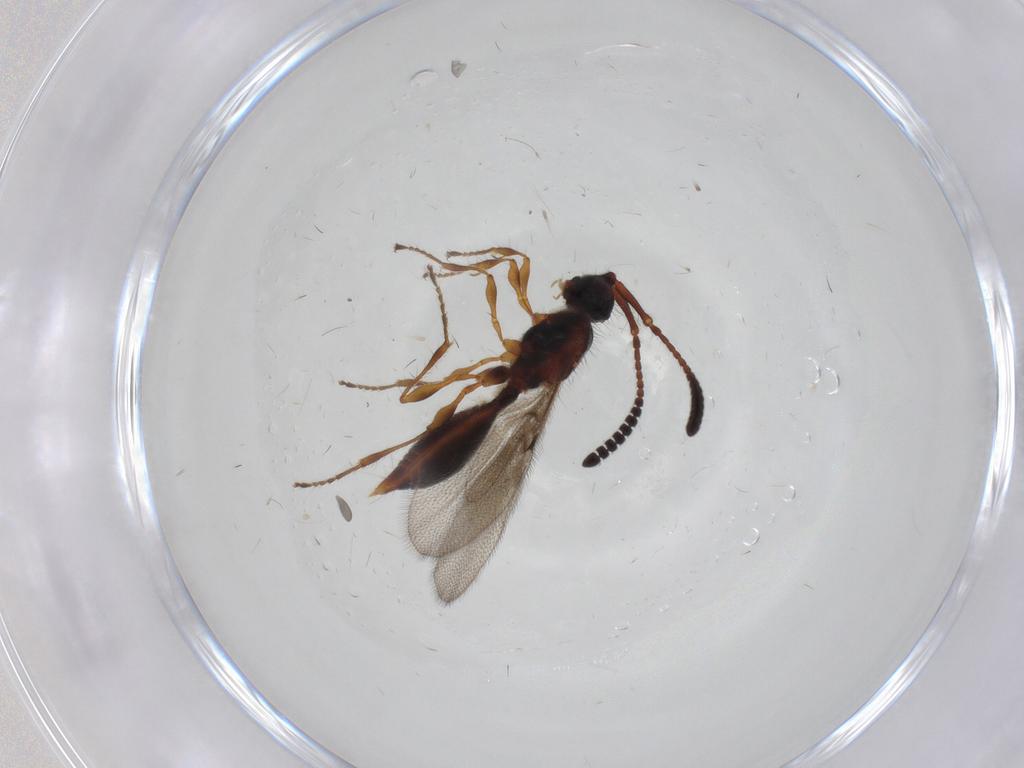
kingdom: Animalia
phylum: Arthropoda
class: Insecta
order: Hymenoptera
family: Diapriidae
